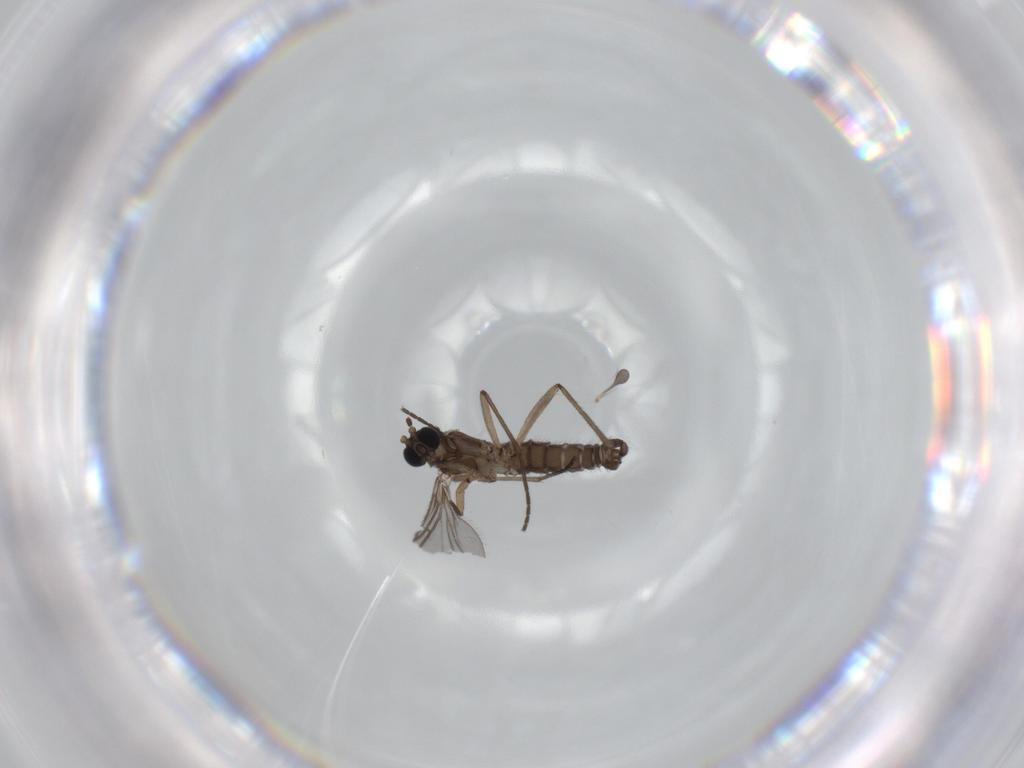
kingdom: Animalia
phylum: Arthropoda
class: Insecta
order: Diptera
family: Sciaridae
